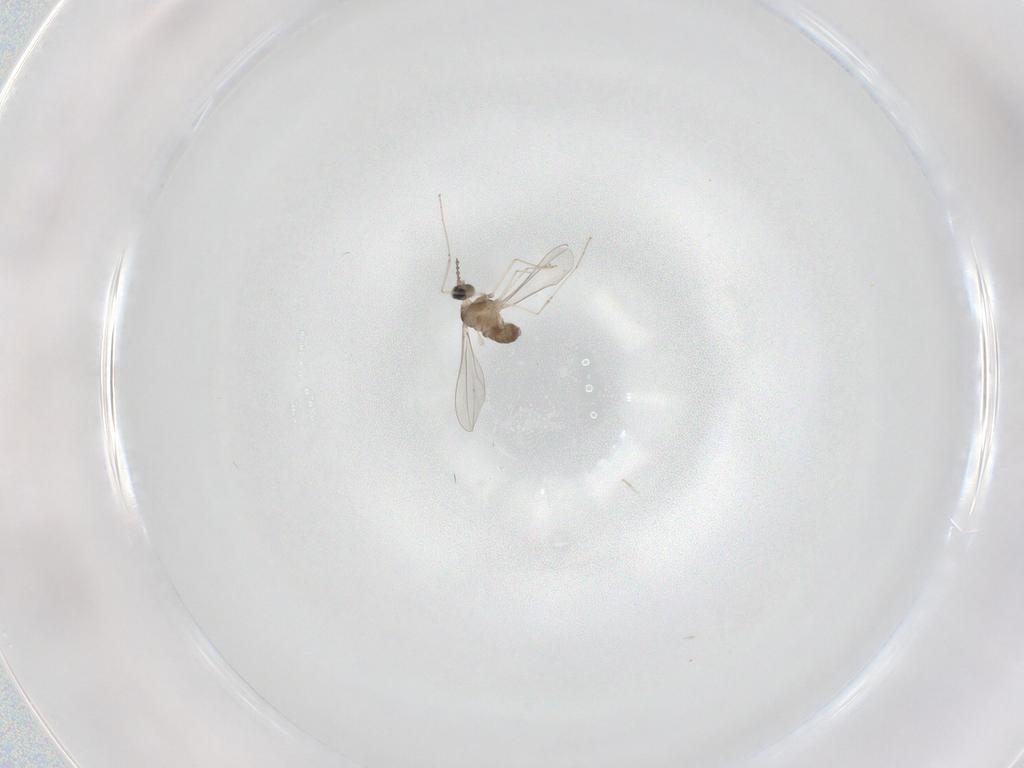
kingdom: Animalia
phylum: Arthropoda
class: Insecta
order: Diptera
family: Cecidomyiidae
